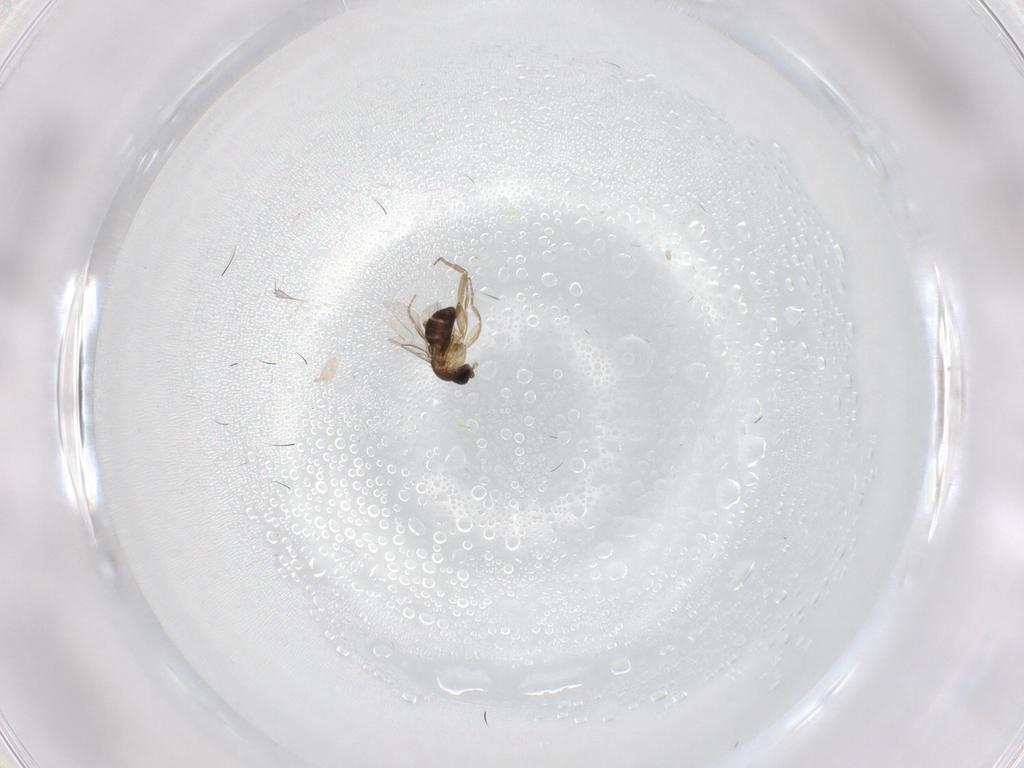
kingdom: Animalia
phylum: Arthropoda
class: Insecta
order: Diptera
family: Phoridae
